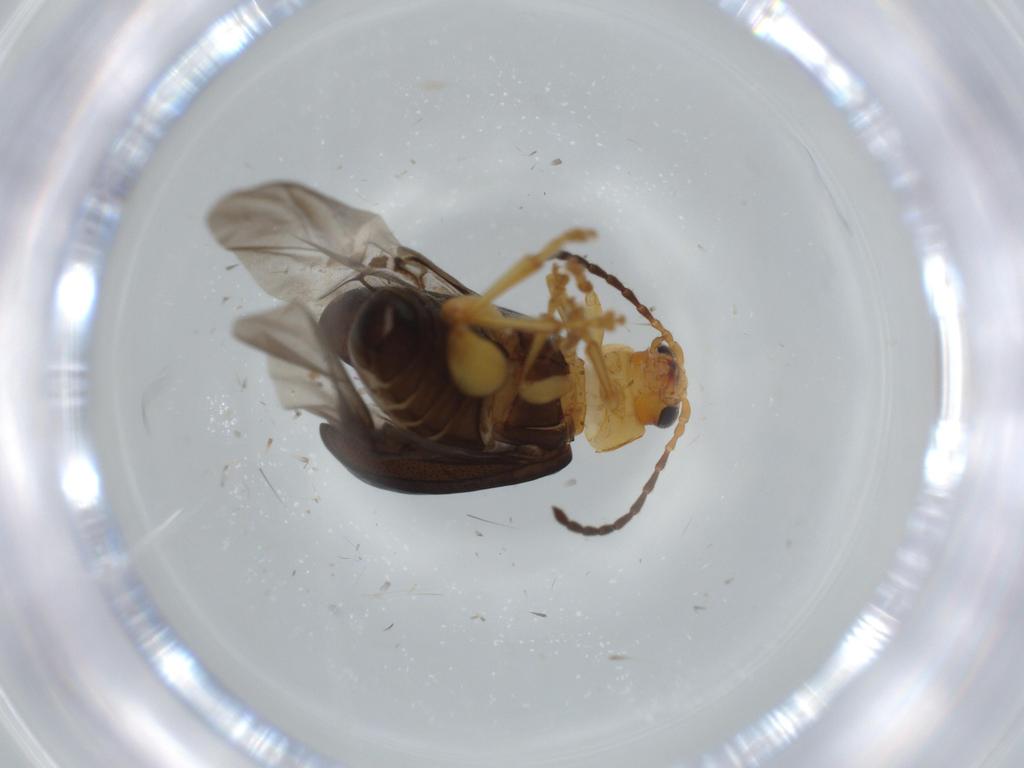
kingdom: Animalia
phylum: Arthropoda
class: Insecta
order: Coleoptera
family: Chrysomelidae
